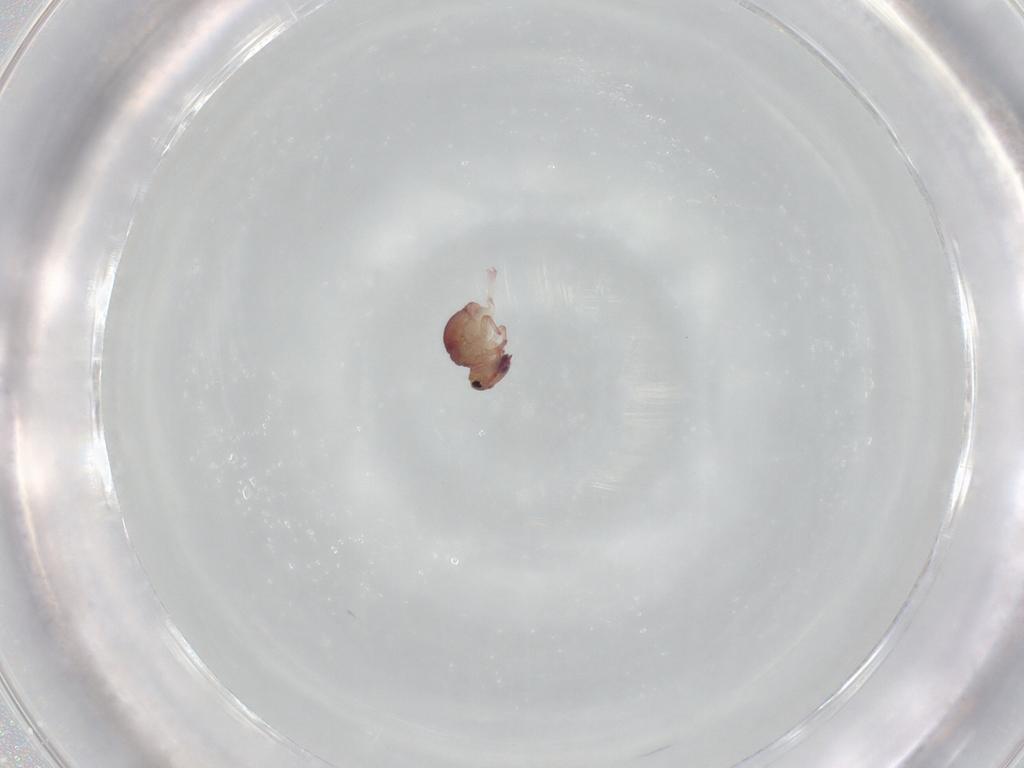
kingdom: Animalia
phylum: Arthropoda
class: Collembola
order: Symphypleona
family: Sminthurididae
